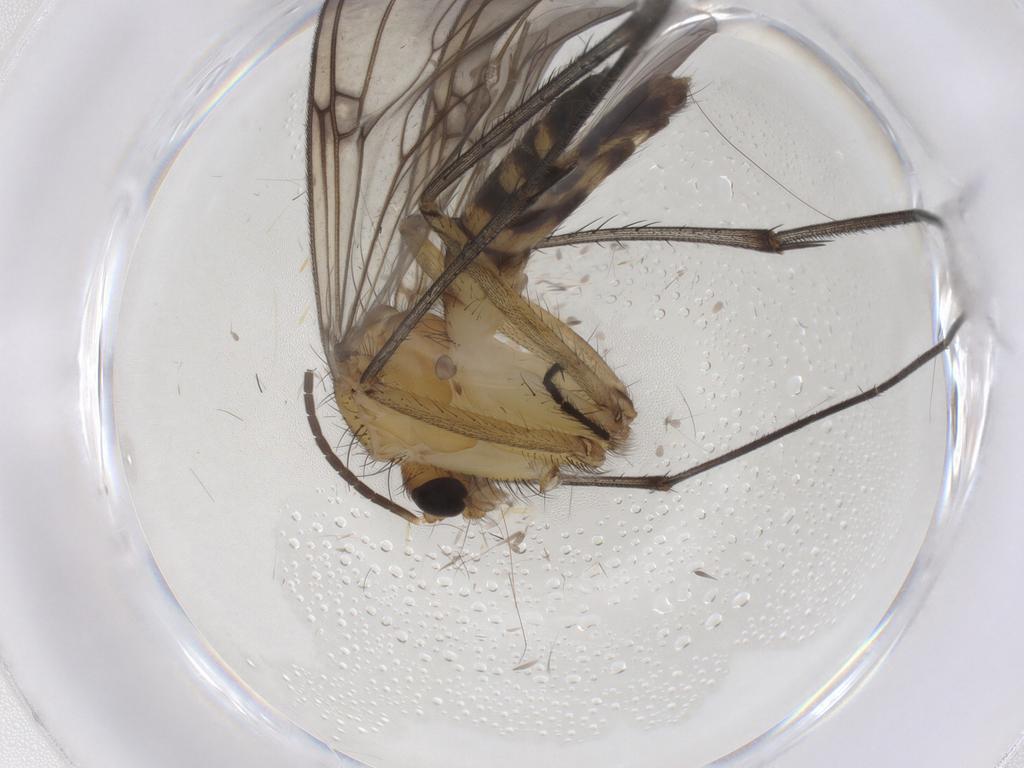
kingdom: Animalia
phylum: Arthropoda
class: Insecta
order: Diptera
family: Mycetophilidae
